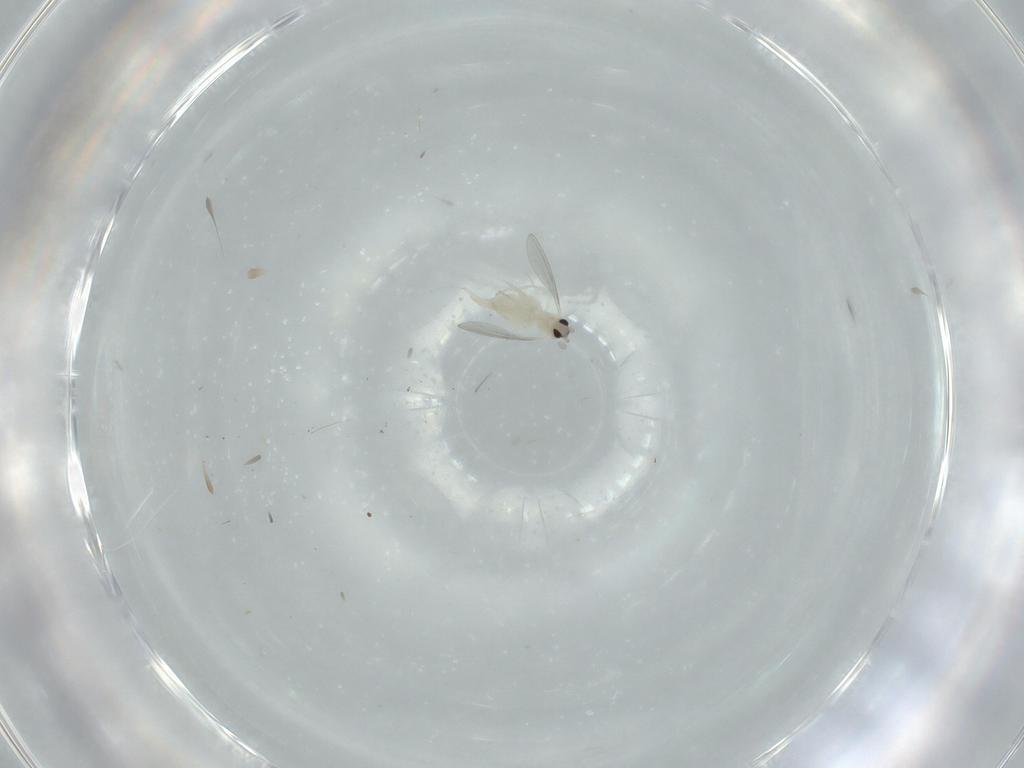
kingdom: Animalia
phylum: Arthropoda
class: Insecta
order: Diptera
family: Cecidomyiidae
